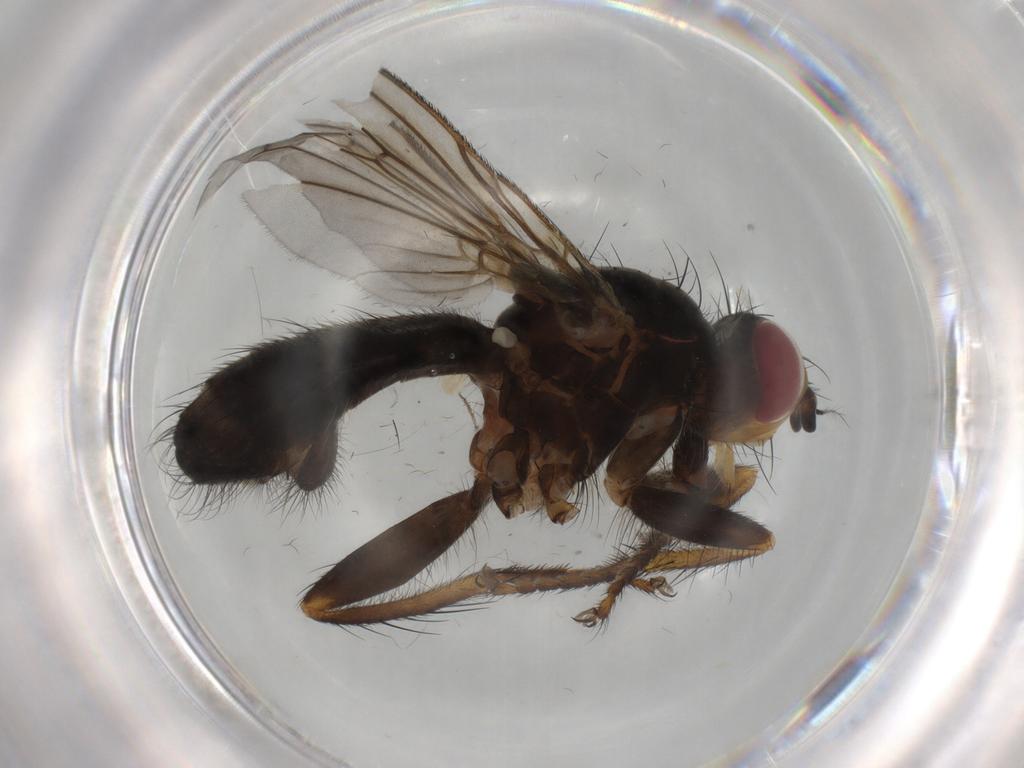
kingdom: Animalia
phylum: Arthropoda
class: Insecta
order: Diptera
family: Scathophagidae
